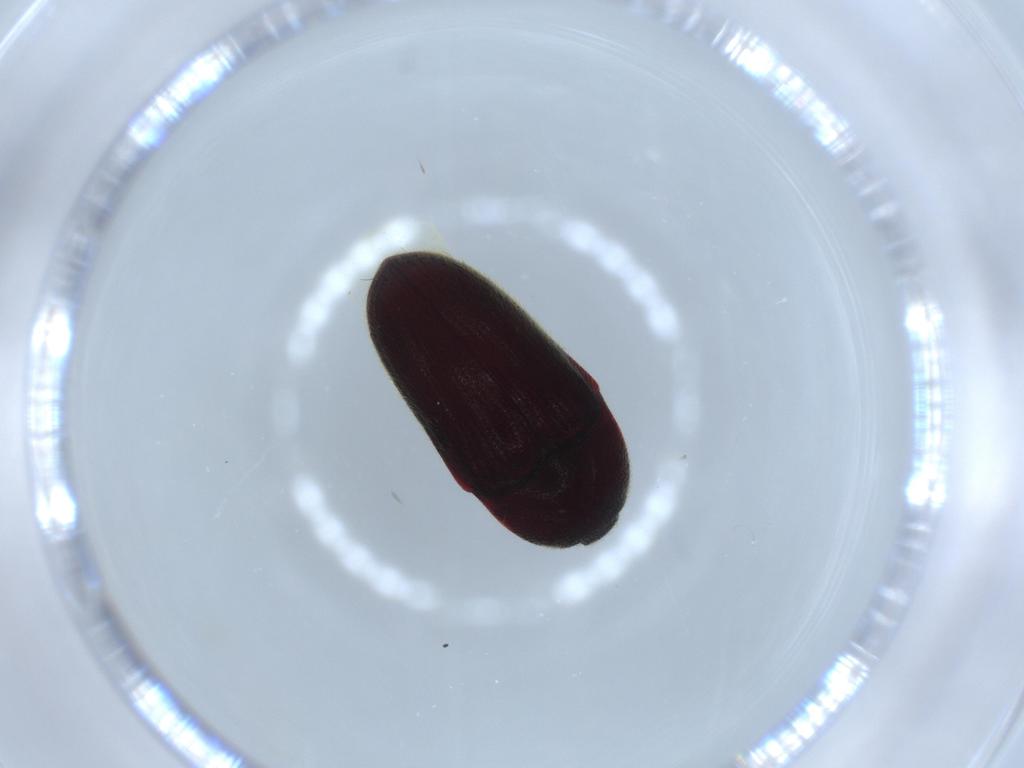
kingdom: Animalia
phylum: Arthropoda
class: Insecta
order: Coleoptera
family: Throscidae
